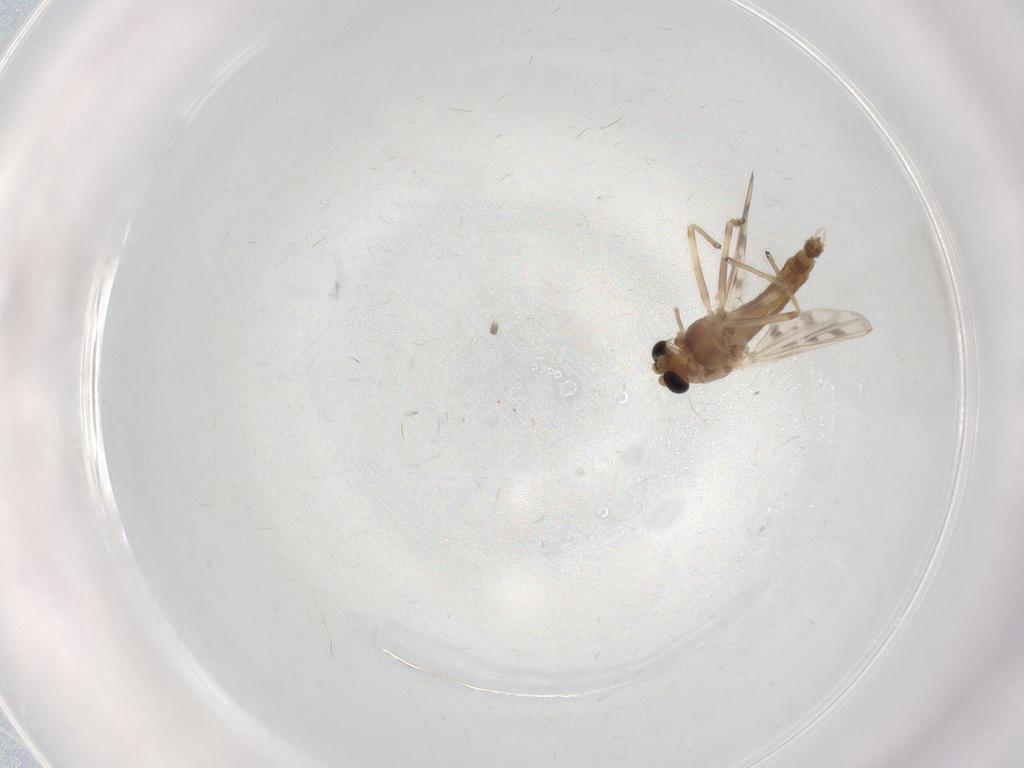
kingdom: Animalia
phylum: Arthropoda
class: Insecta
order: Diptera
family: Chironomidae
